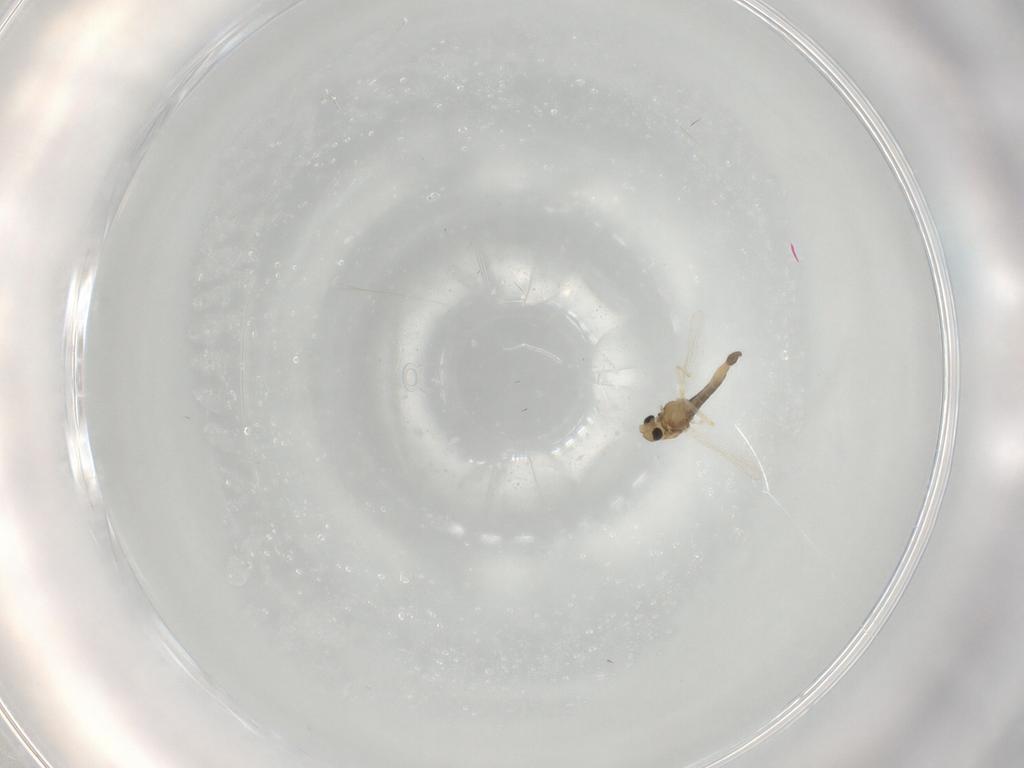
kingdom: Animalia
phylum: Arthropoda
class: Insecta
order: Diptera
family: Chironomidae
